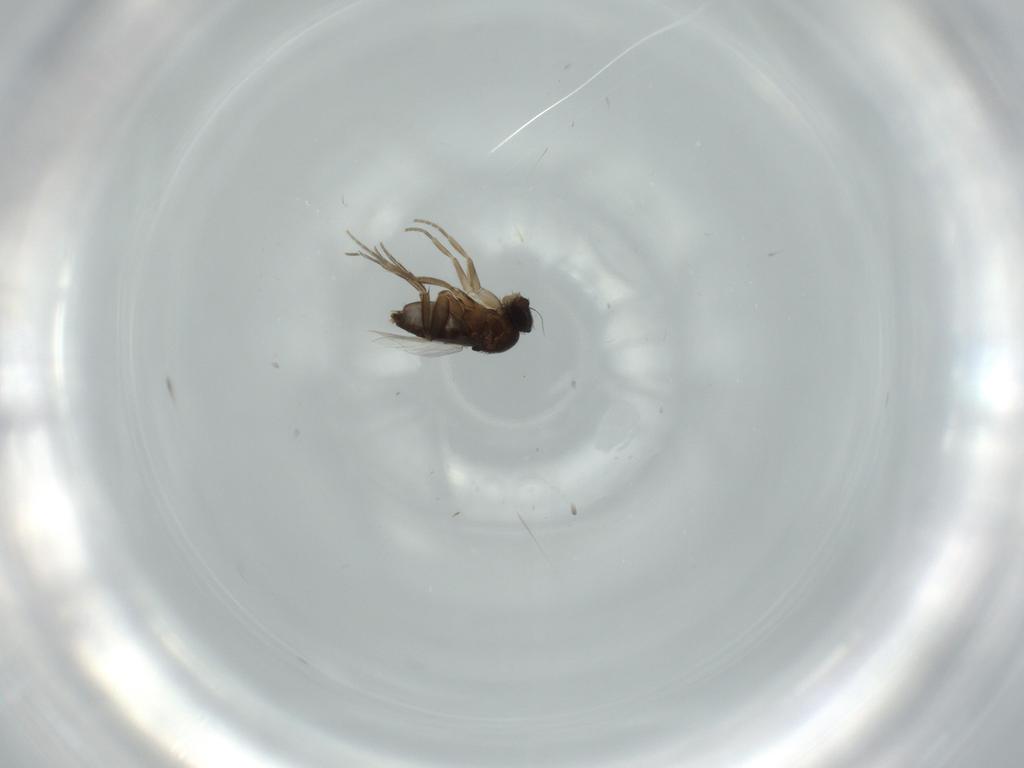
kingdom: Animalia
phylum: Arthropoda
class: Insecta
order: Diptera
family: Phoridae
